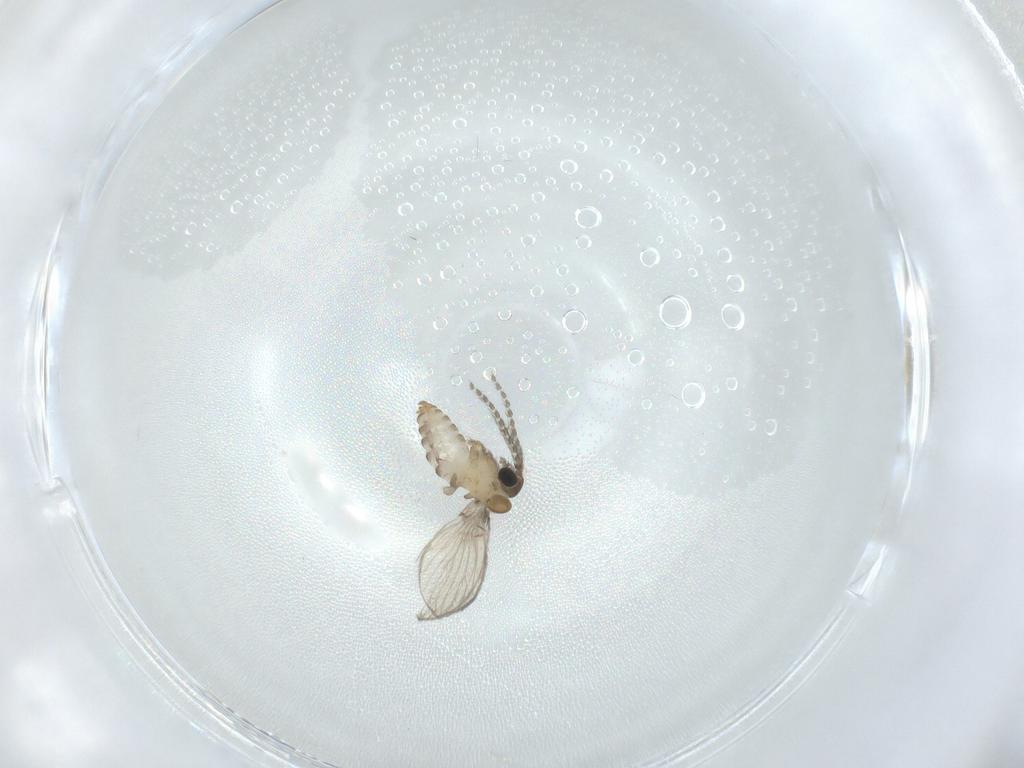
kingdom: Animalia
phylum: Arthropoda
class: Insecta
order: Diptera
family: Psychodidae
